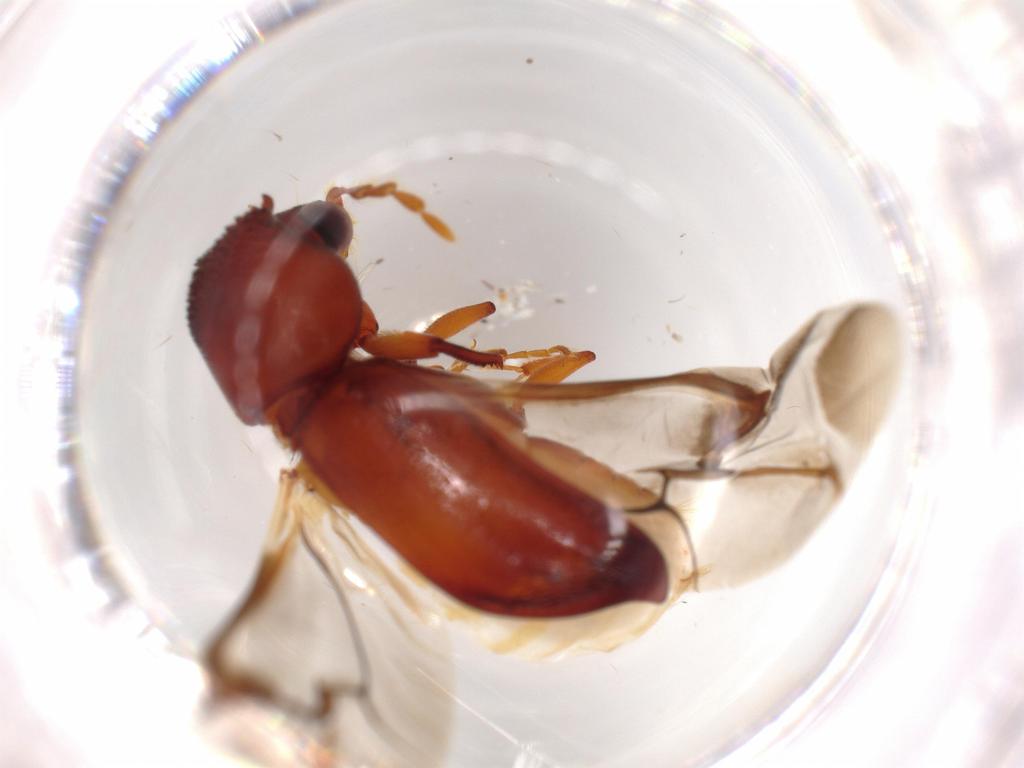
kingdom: Animalia
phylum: Arthropoda
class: Insecta
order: Coleoptera
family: Bostrichidae
